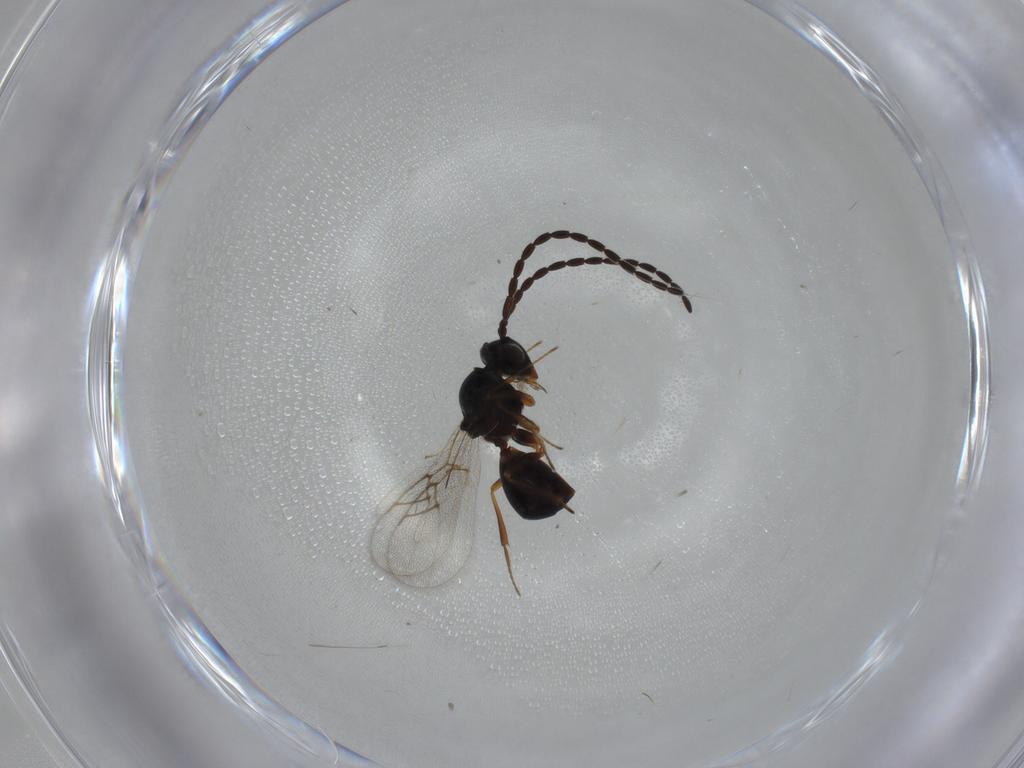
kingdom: Animalia
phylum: Arthropoda
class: Insecta
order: Hymenoptera
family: Figitidae
